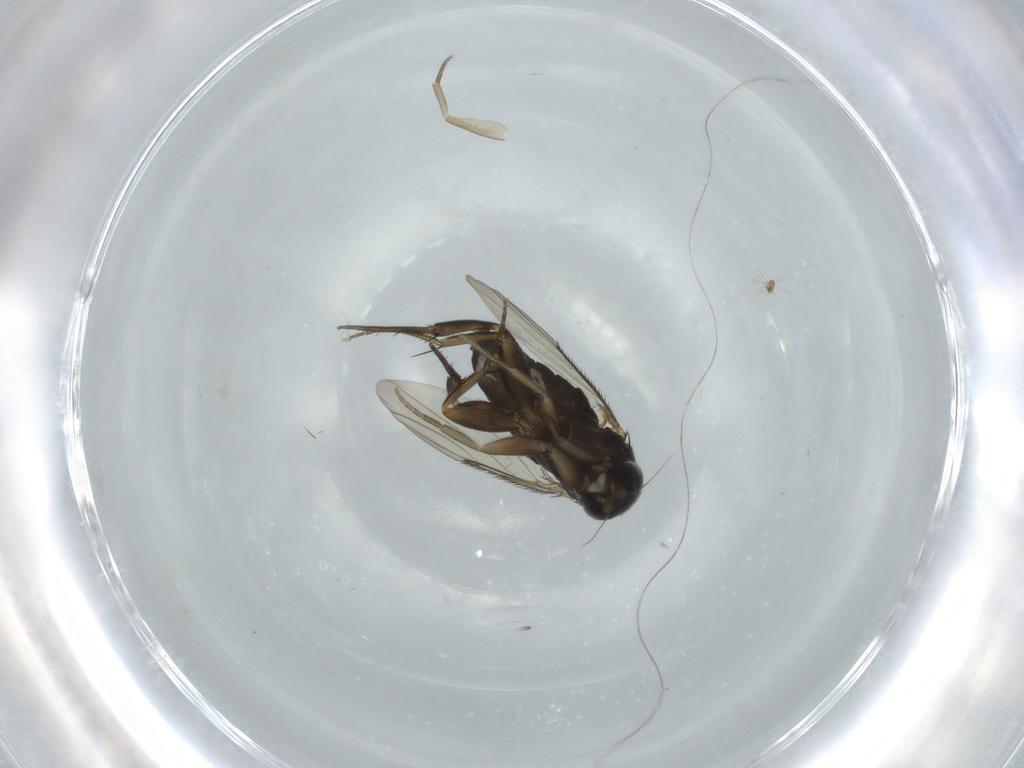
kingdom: Animalia
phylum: Arthropoda
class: Insecta
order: Diptera
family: Phoridae
